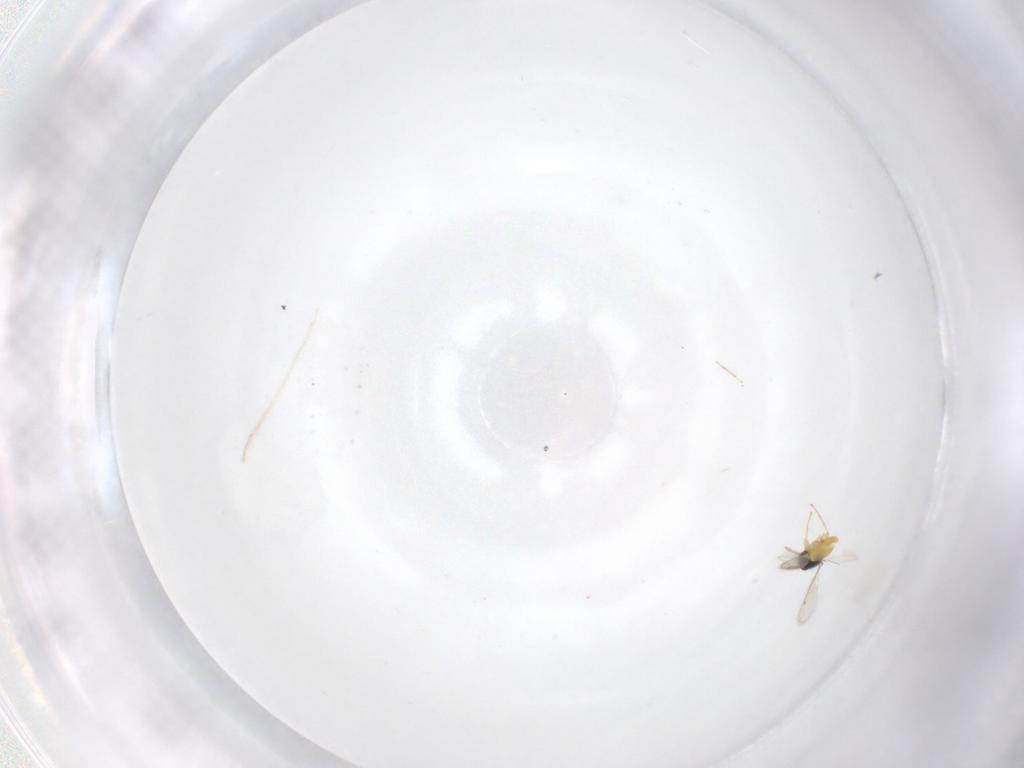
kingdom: Animalia
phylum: Arthropoda
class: Insecta
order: Hymenoptera
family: Eulophidae
